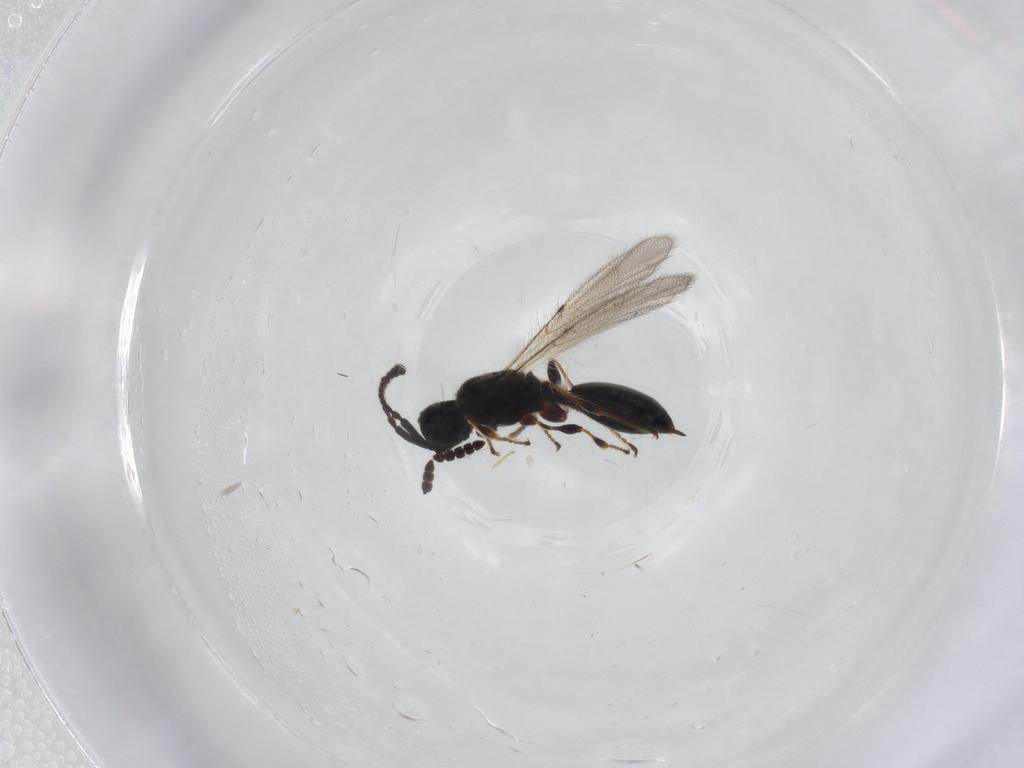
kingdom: Animalia
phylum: Arthropoda
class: Insecta
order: Hymenoptera
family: Diapriidae
